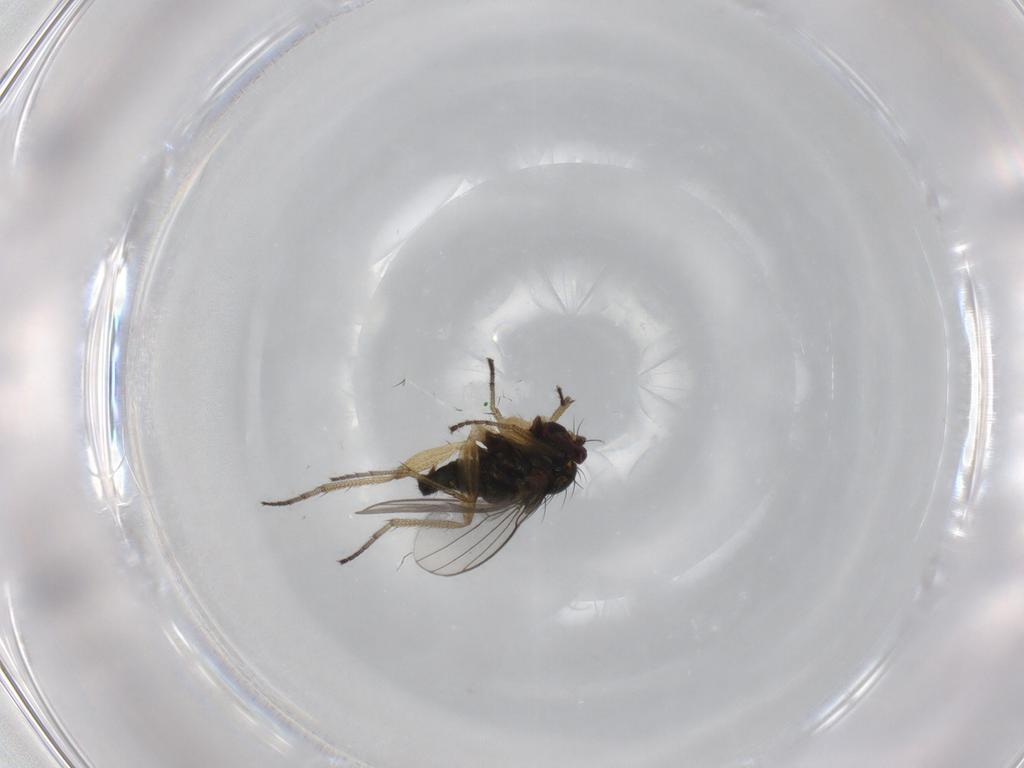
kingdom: Animalia
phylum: Arthropoda
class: Insecta
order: Diptera
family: Dolichopodidae
